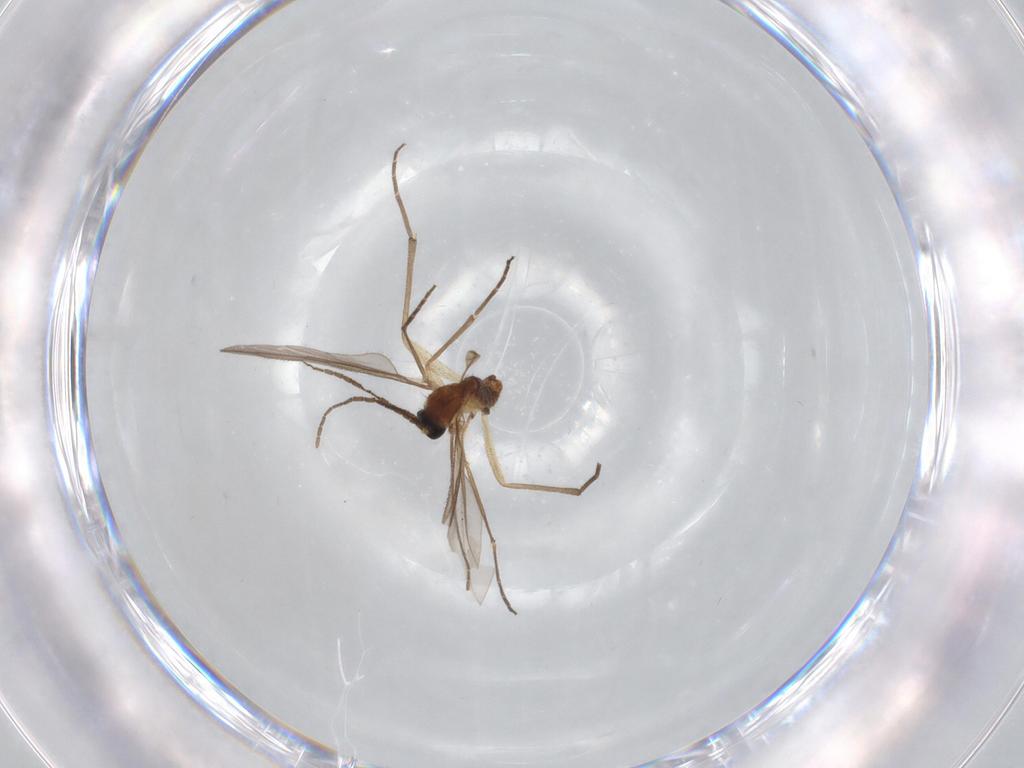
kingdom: Animalia
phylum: Arthropoda
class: Insecta
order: Diptera
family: Sciaridae
